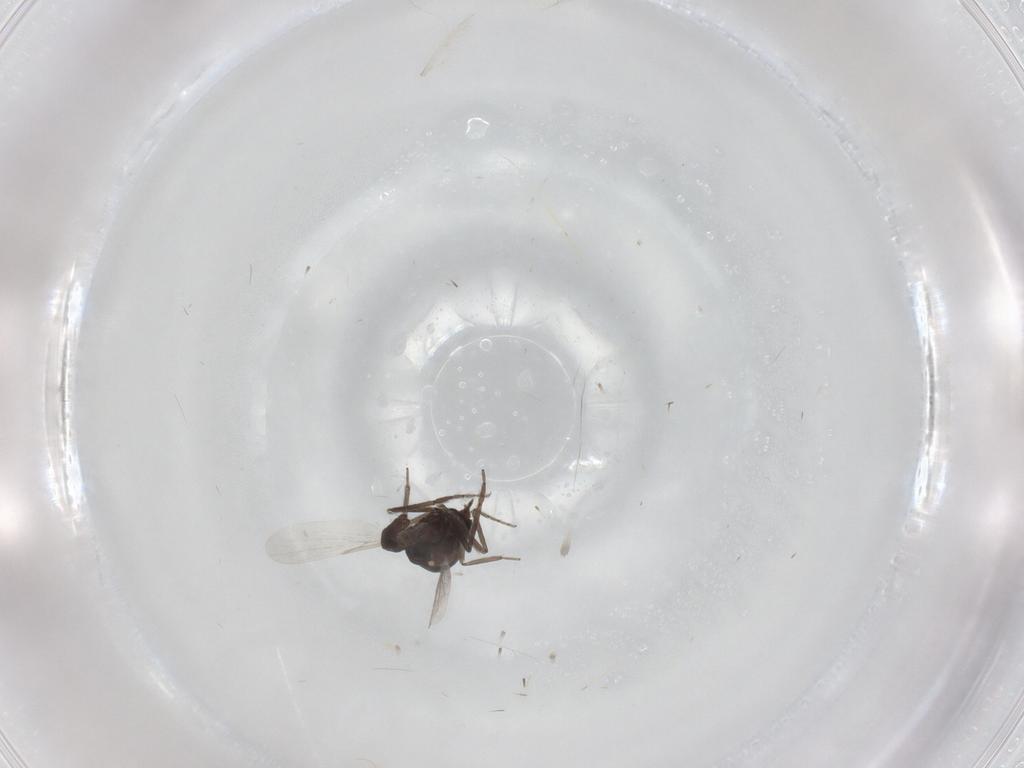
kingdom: Animalia
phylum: Arthropoda
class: Insecta
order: Diptera
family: Ceratopogonidae
